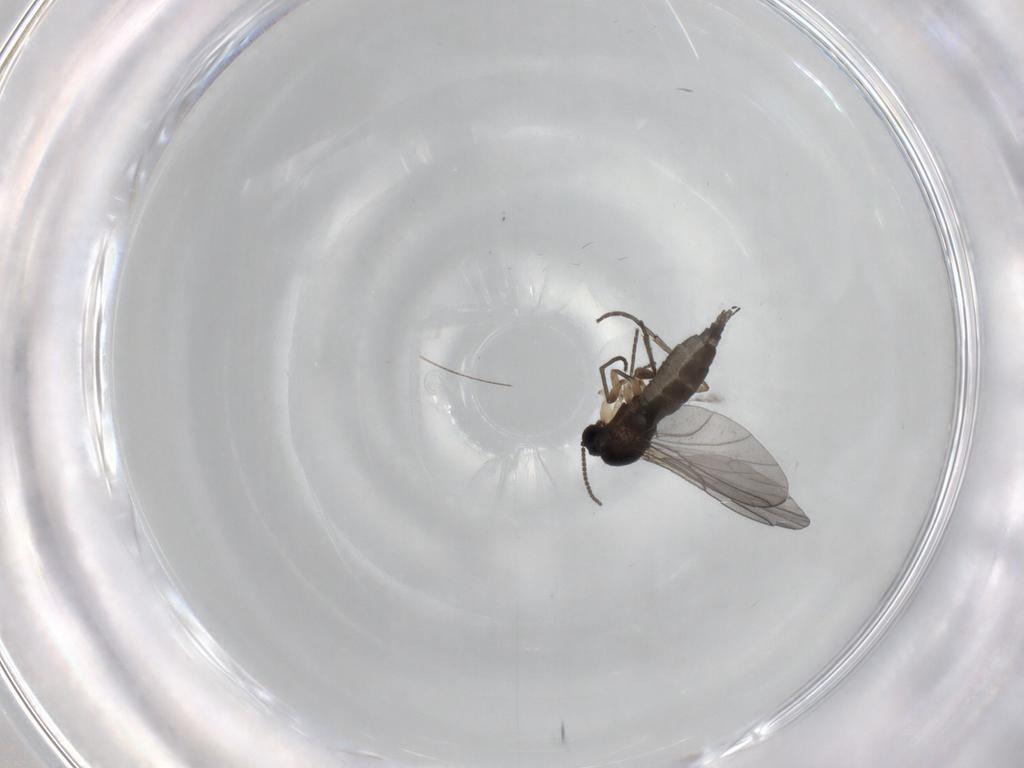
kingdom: Animalia
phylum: Arthropoda
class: Insecta
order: Diptera
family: Sciaridae
